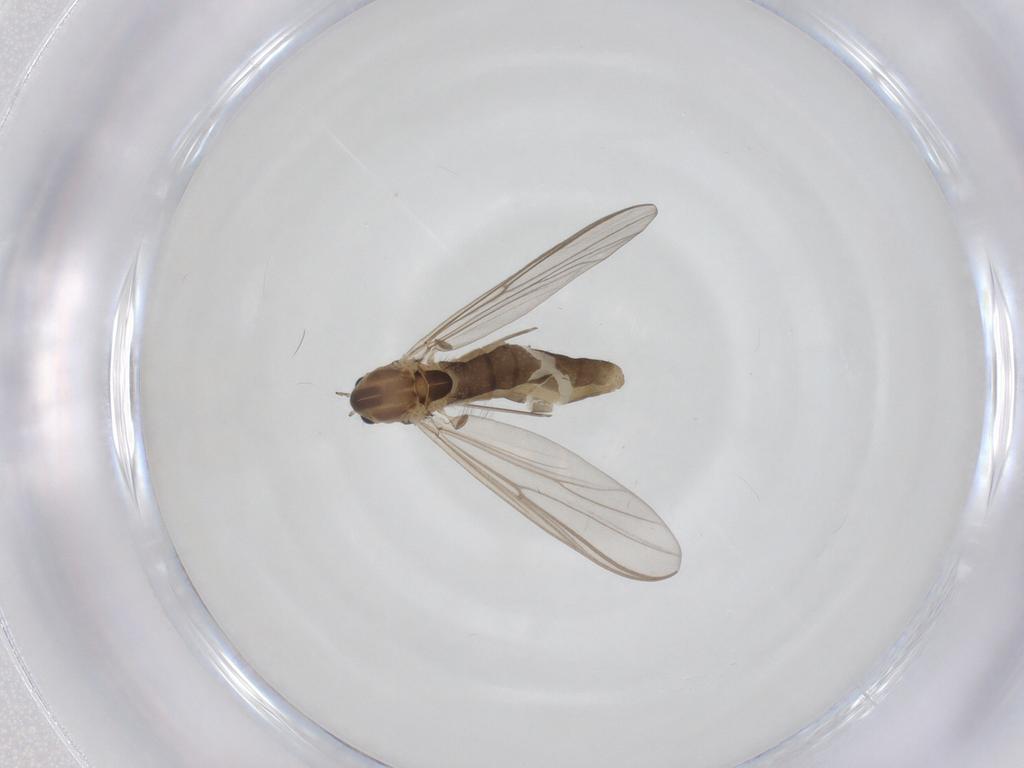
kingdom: Animalia
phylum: Arthropoda
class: Insecta
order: Diptera
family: Chironomidae
